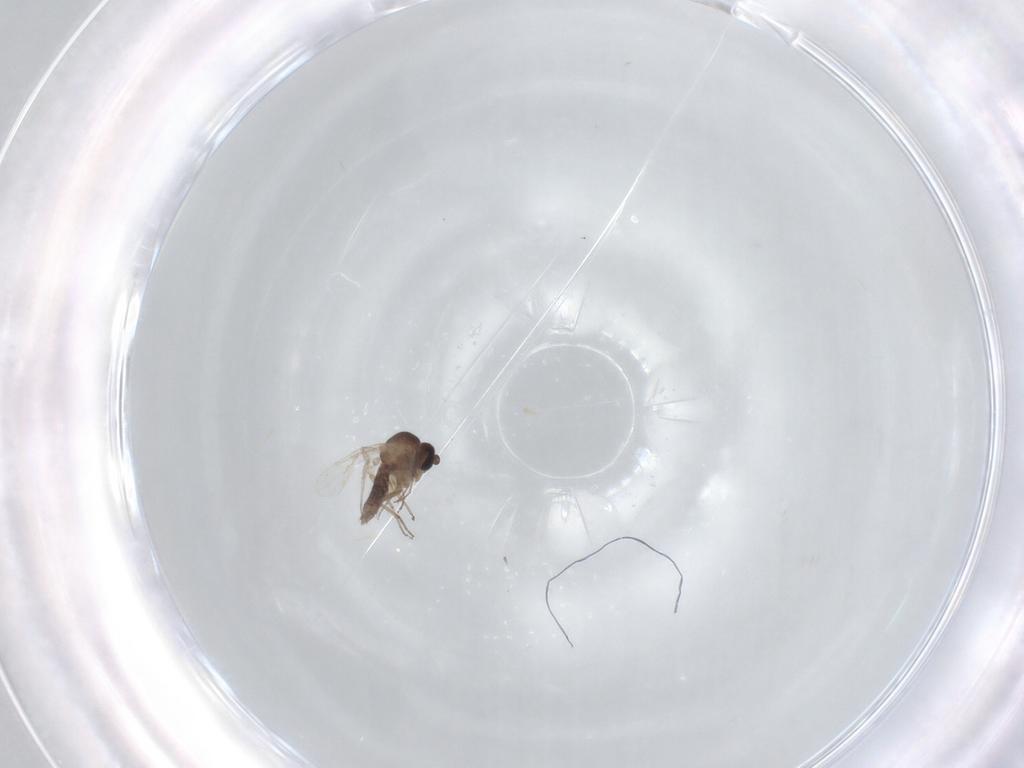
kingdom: Animalia
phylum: Arthropoda
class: Insecta
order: Diptera
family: Ceratopogonidae
